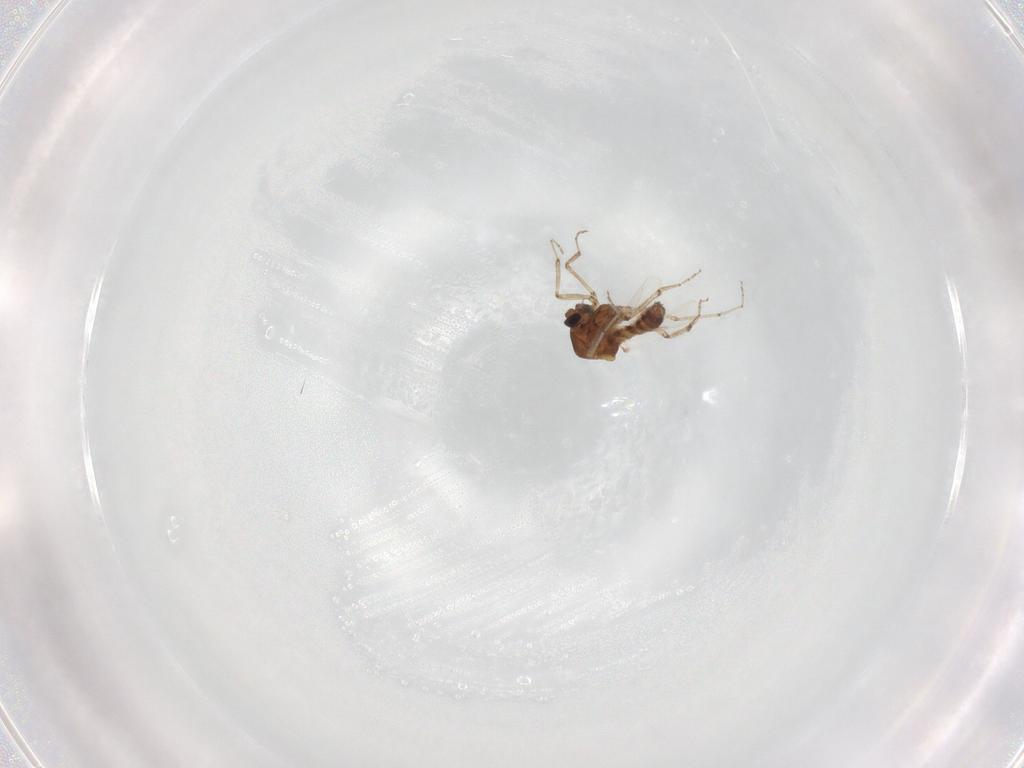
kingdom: Animalia
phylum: Arthropoda
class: Insecta
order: Diptera
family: Ceratopogonidae
